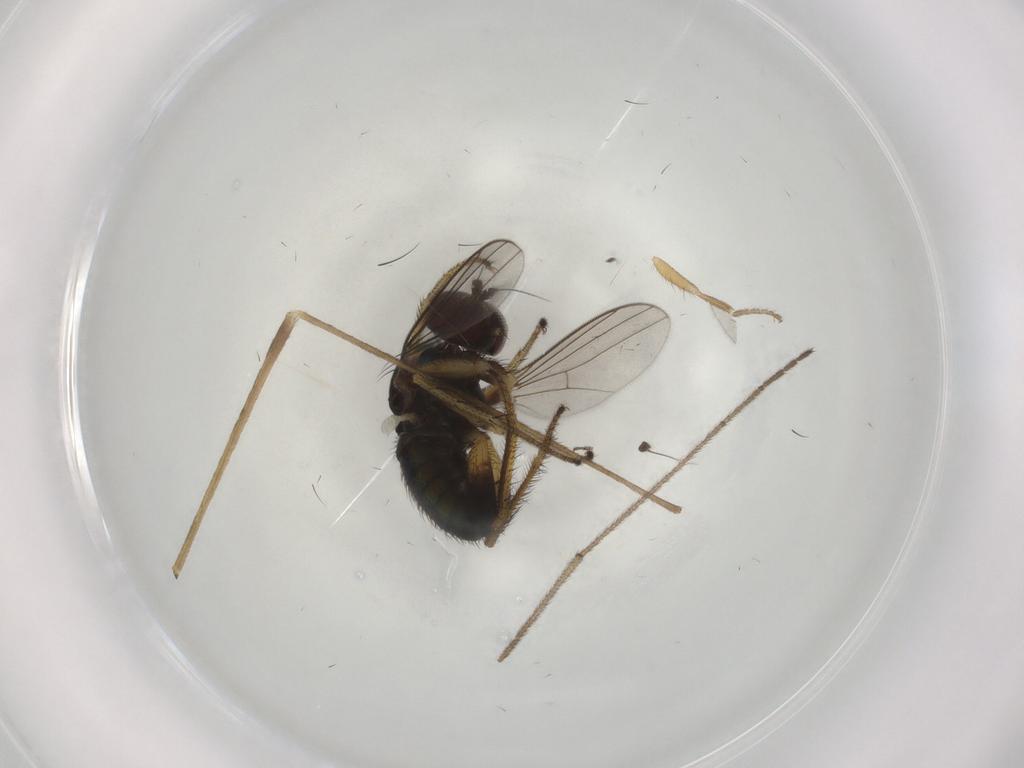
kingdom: Animalia
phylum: Arthropoda
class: Insecta
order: Diptera
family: Dolichopodidae
